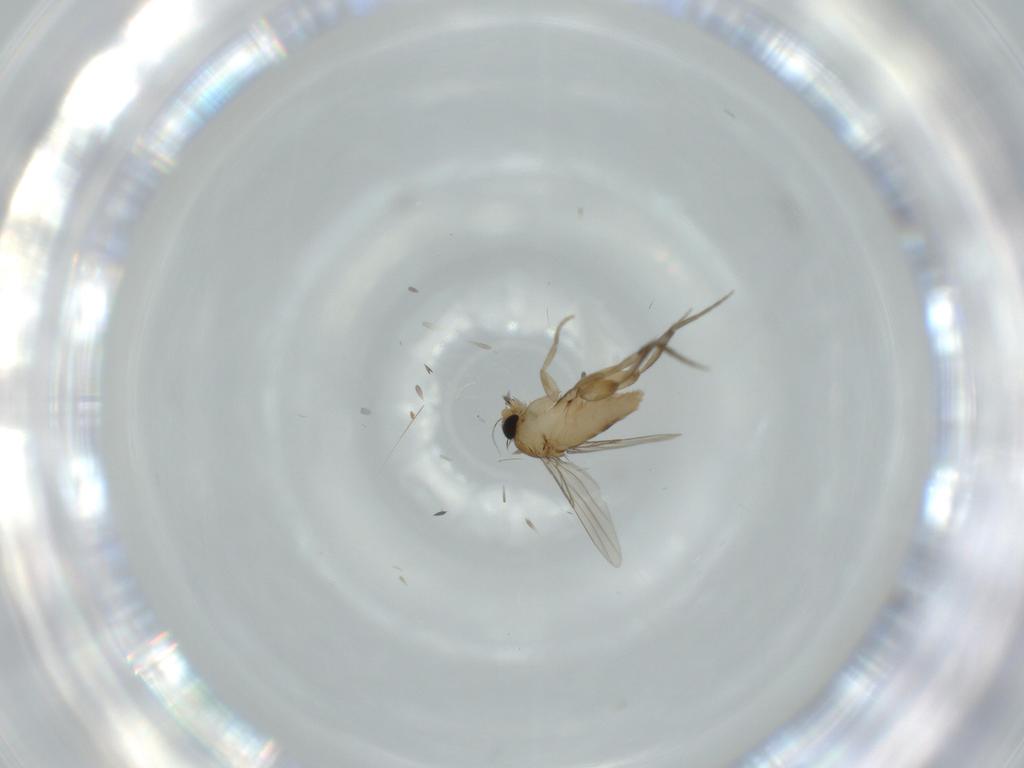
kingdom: Animalia
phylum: Arthropoda
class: Insecta
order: Diptera
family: Phoridae
